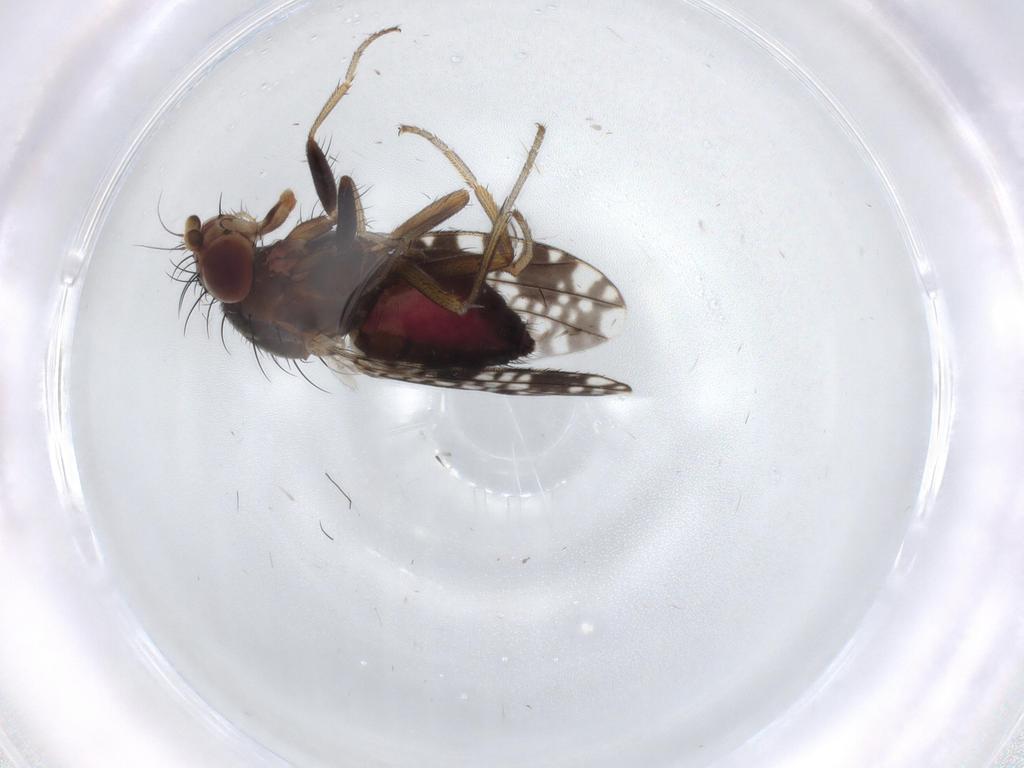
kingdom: Animalia
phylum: Arthropoda
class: Insecta
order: Diptera
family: Tephritidae
